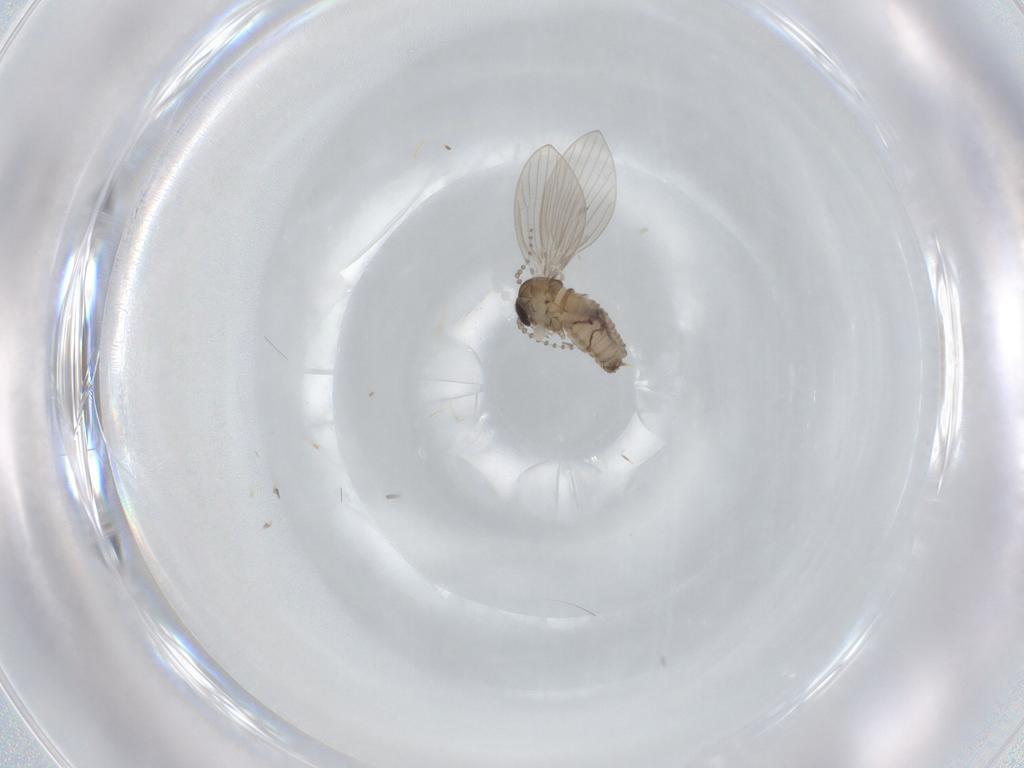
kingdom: Animalia
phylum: Arthropoda
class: Insecta
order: Diptera
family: Psychodidae
